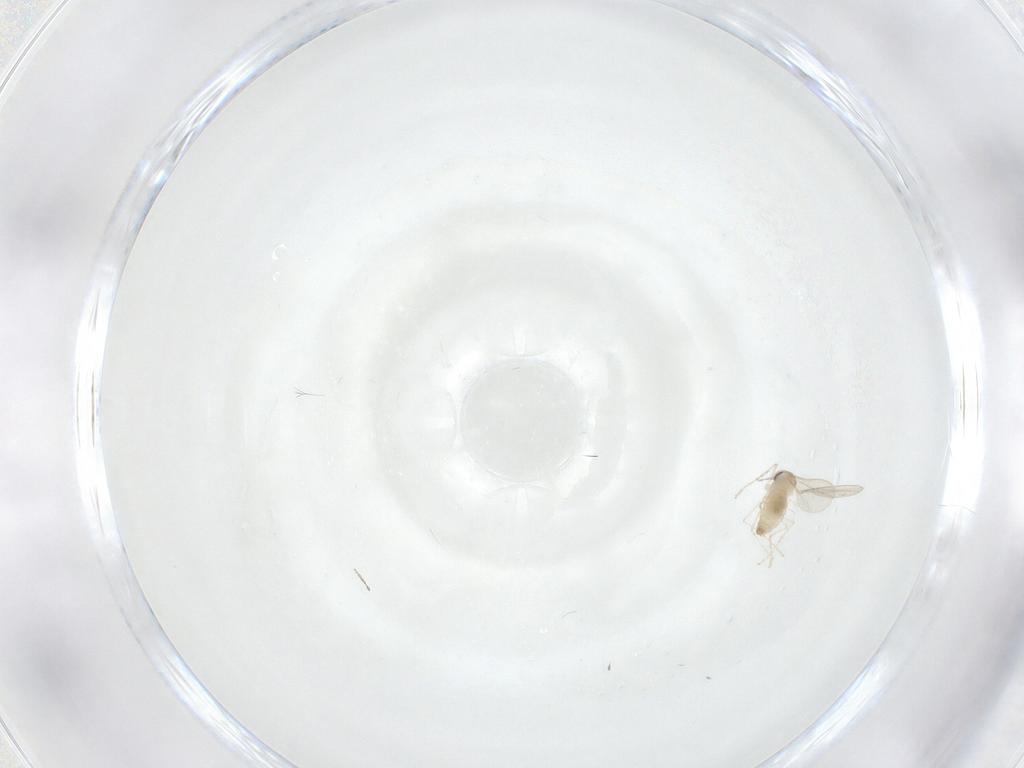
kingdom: Animalia
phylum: Arthropoda
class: Insecta
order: Diptera
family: Cecidomyiidae
